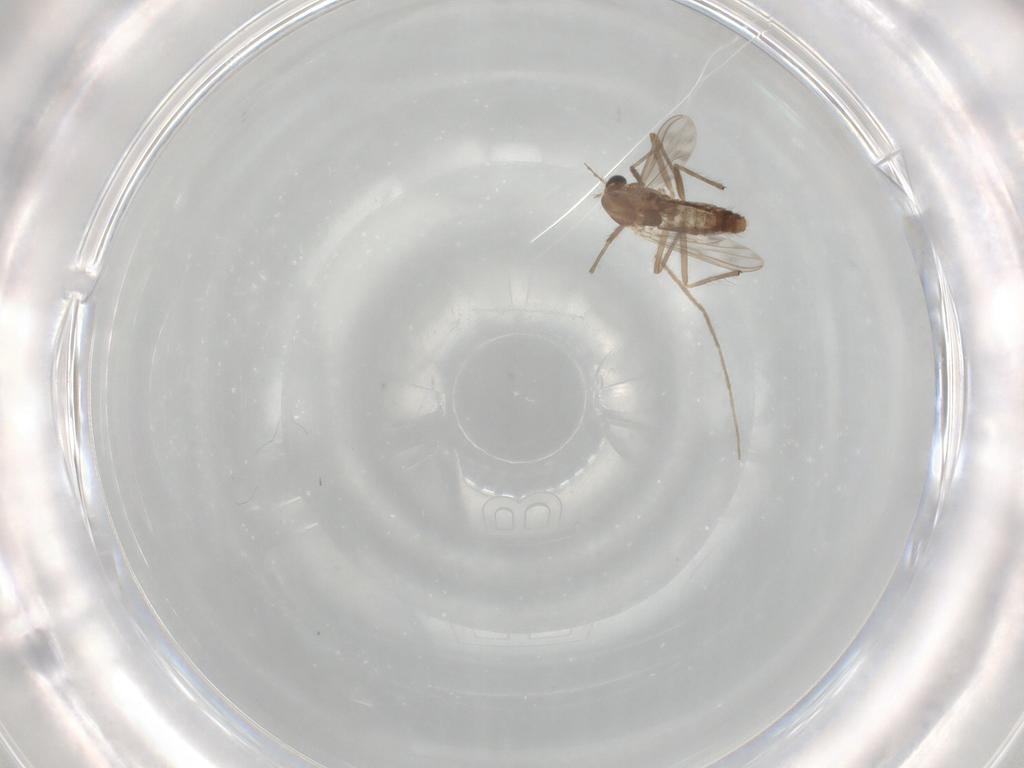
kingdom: Animalia
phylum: Arthropoda
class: Insecta
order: Diptera
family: Chironomidae
